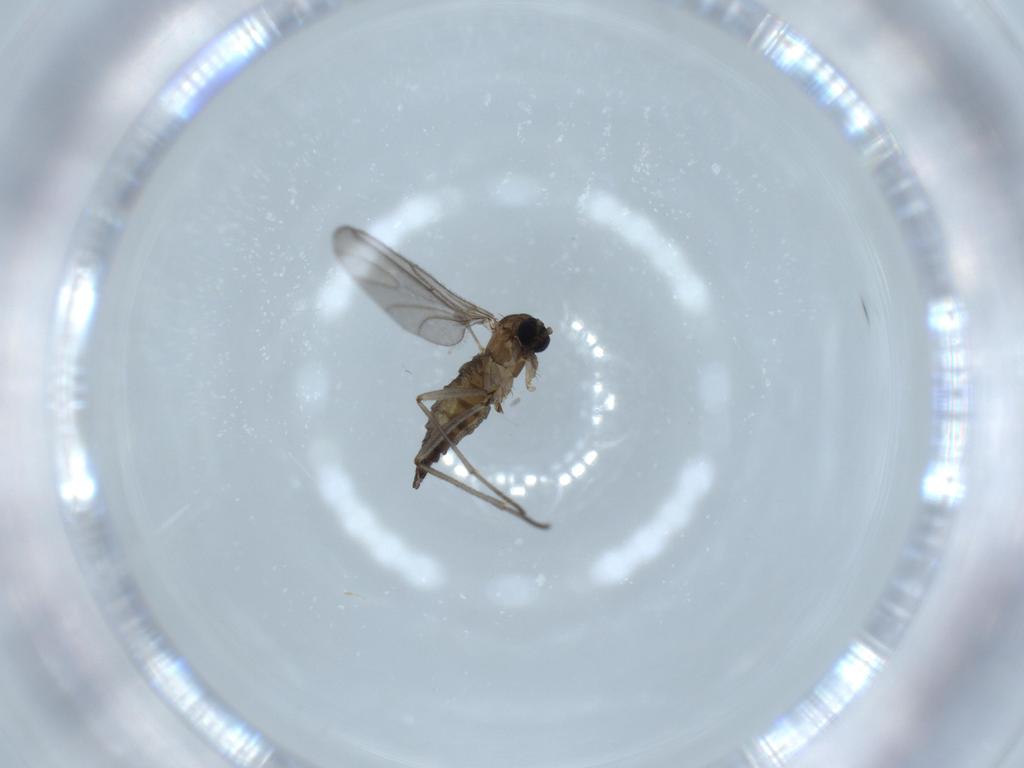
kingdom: Animalia
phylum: Arthropoda
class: Insecta
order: Diptera
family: Sciaridae
